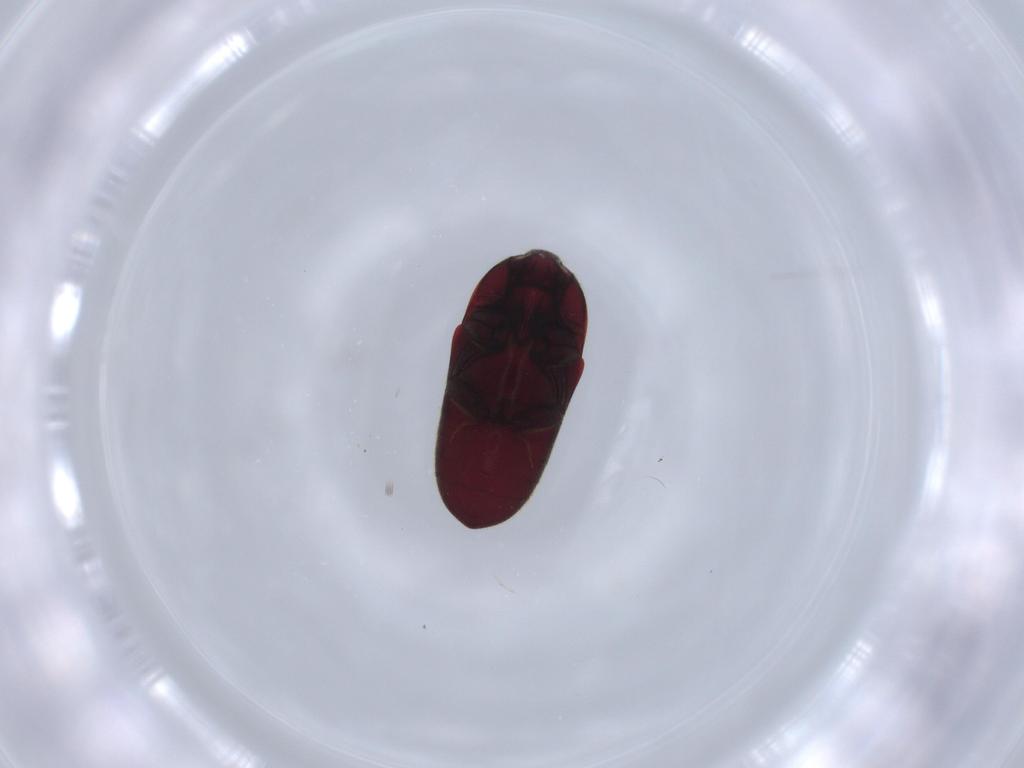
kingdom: Animalia
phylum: Arthropoda
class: Insecta
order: Coleoptera
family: Throscidae
